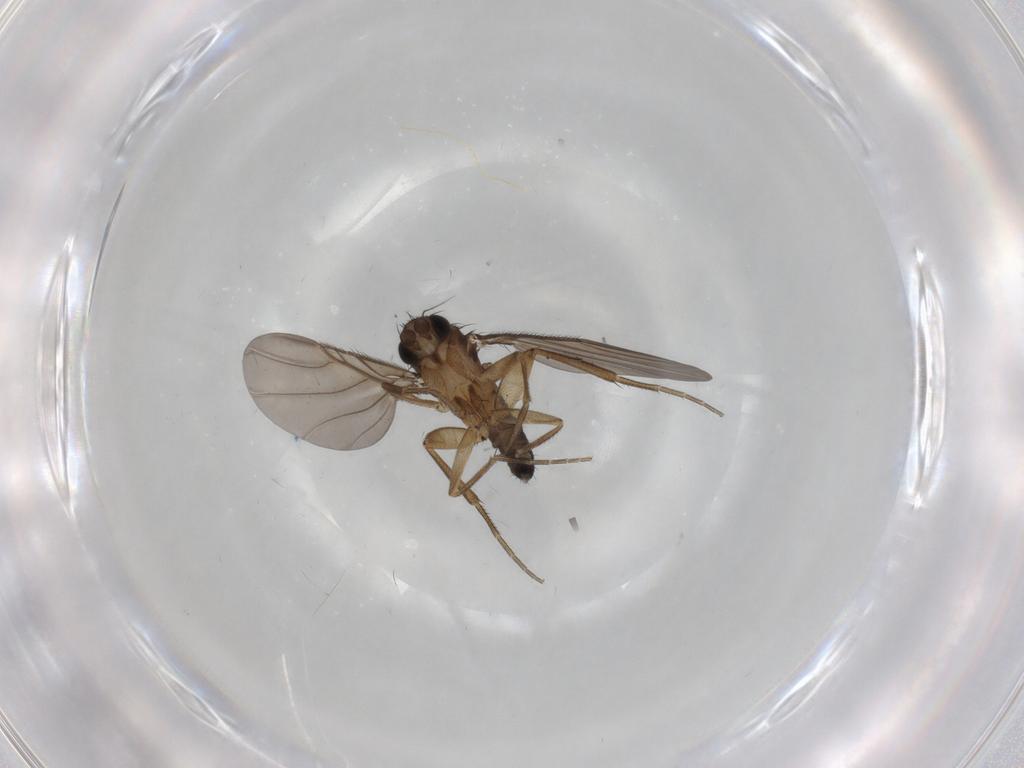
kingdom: Animalia
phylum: Arthropoda
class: Insecta
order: Diptera
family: Phoridae
